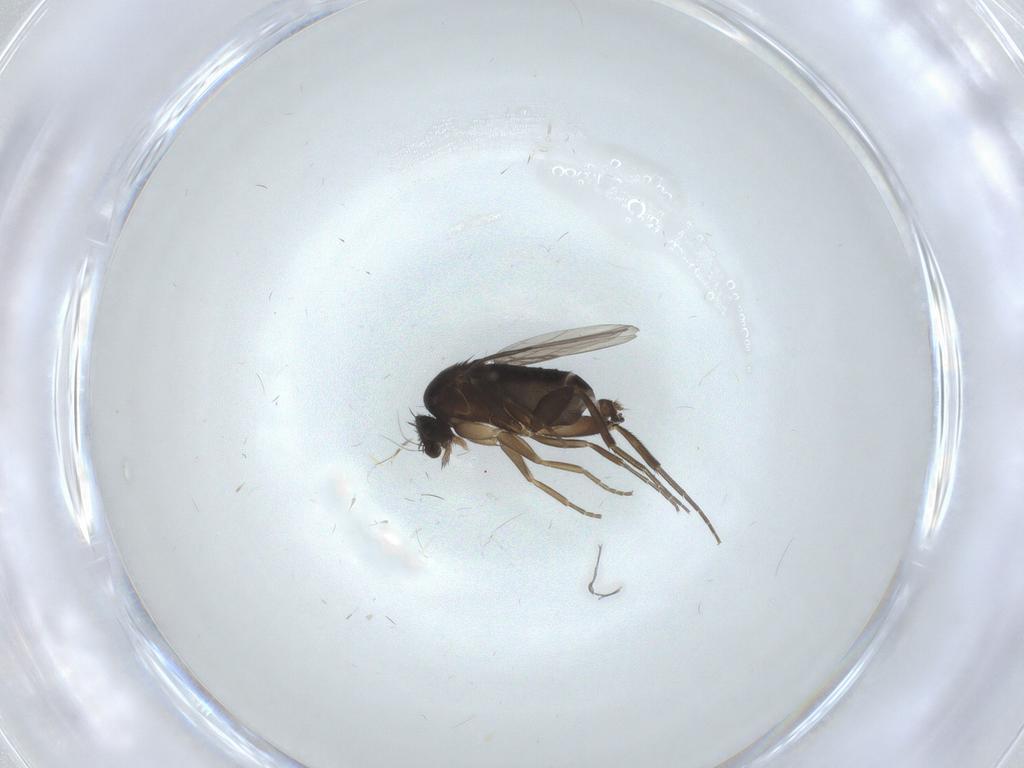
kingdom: Animalia
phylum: Arthropoda
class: Insecta
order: Diptera
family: Phoridae
